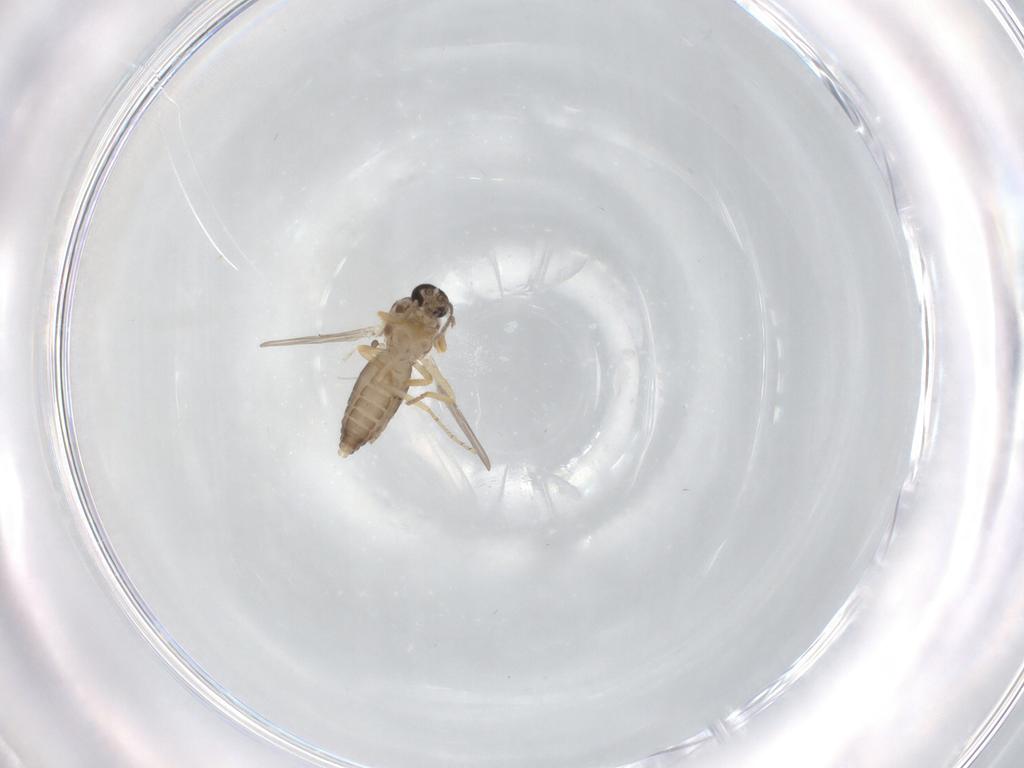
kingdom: Animalia
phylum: Arthropoda
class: Insecta
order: Diptera
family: Ceratopogonidae
